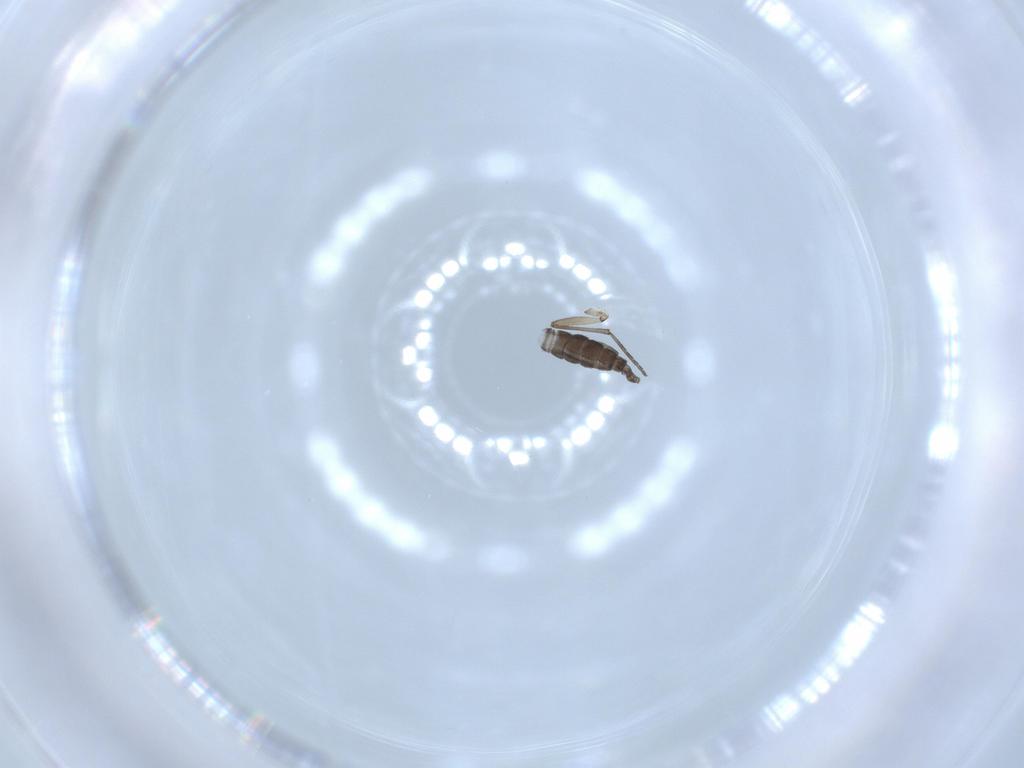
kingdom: Animalia
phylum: Arthropoda
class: Insecta
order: Diptera
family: Sciaridae
